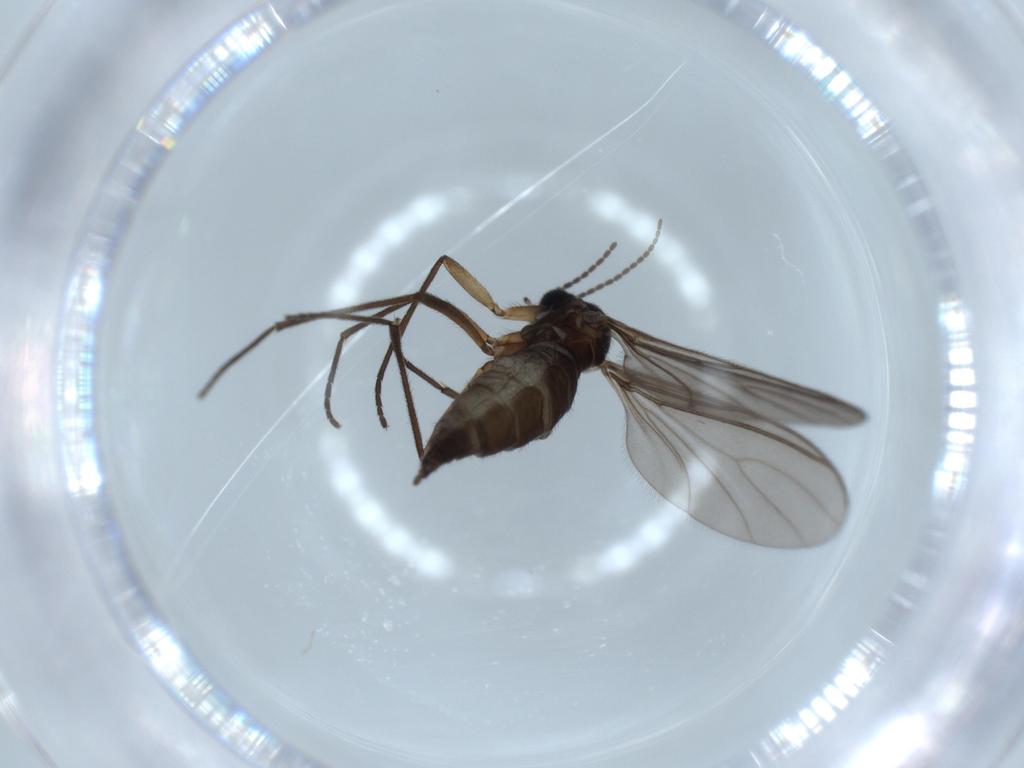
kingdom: Animalia
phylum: Arthropoda
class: Insecta
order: Diptera
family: Sciaridae
